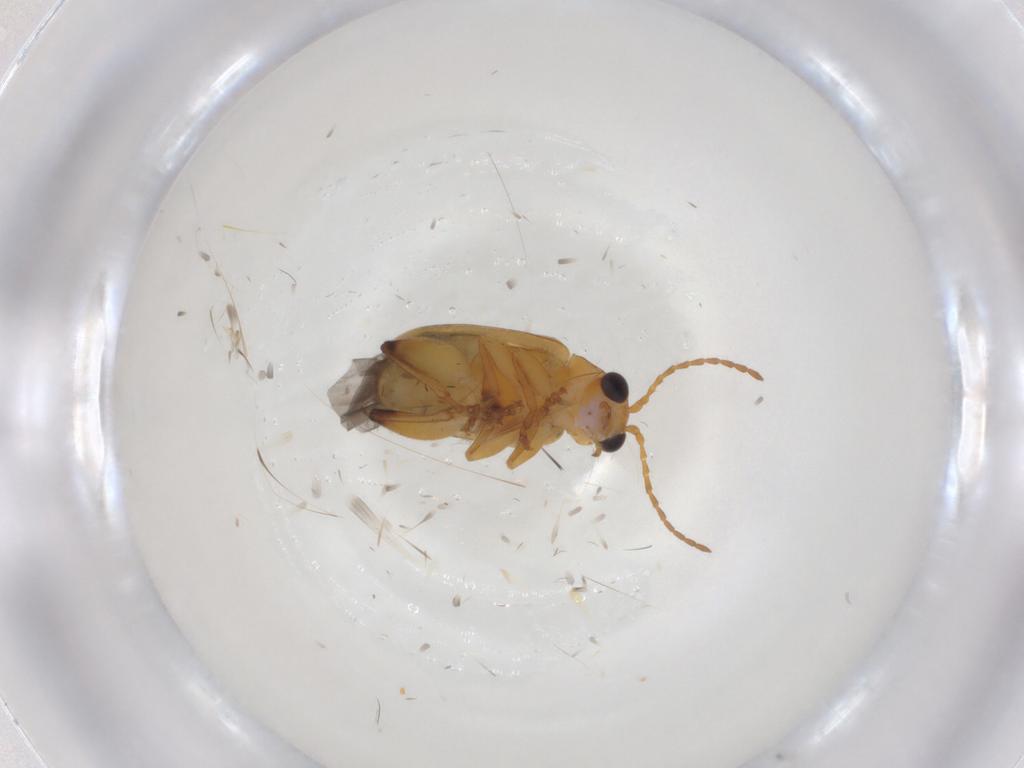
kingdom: Animalia
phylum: Arthropoda
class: Insecta
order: Coleoptera
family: Chrysomelidae
